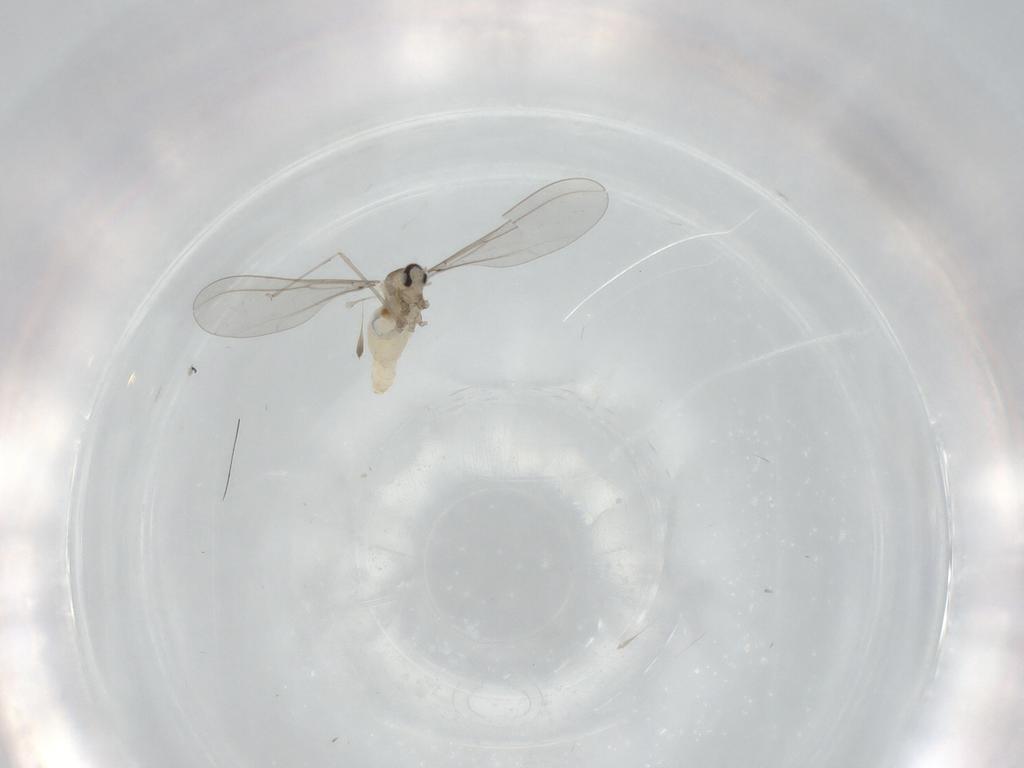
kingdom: Animalia
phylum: Arthropoda
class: Insecta
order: Diptera
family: Cecidomyiidae
